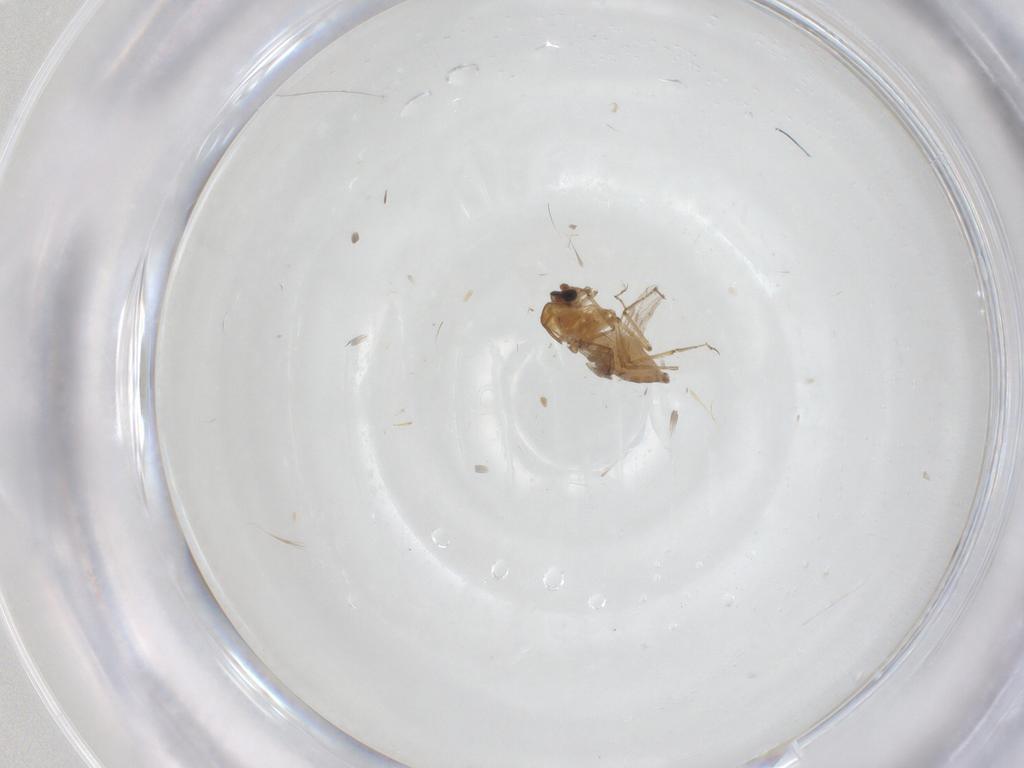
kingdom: Animalia
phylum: Arthropoda
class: Insecta
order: Diptera
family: Ceratopogonidae
